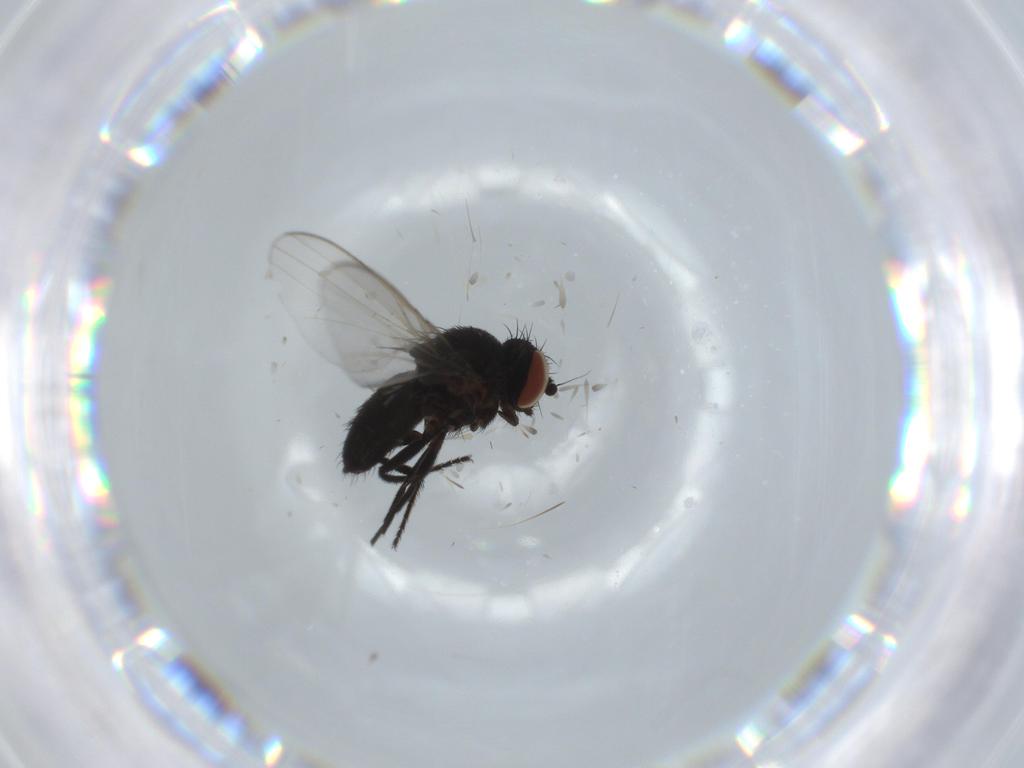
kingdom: Animalia
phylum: Arthropoda
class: Insecta
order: Diptera
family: Milichiidae
